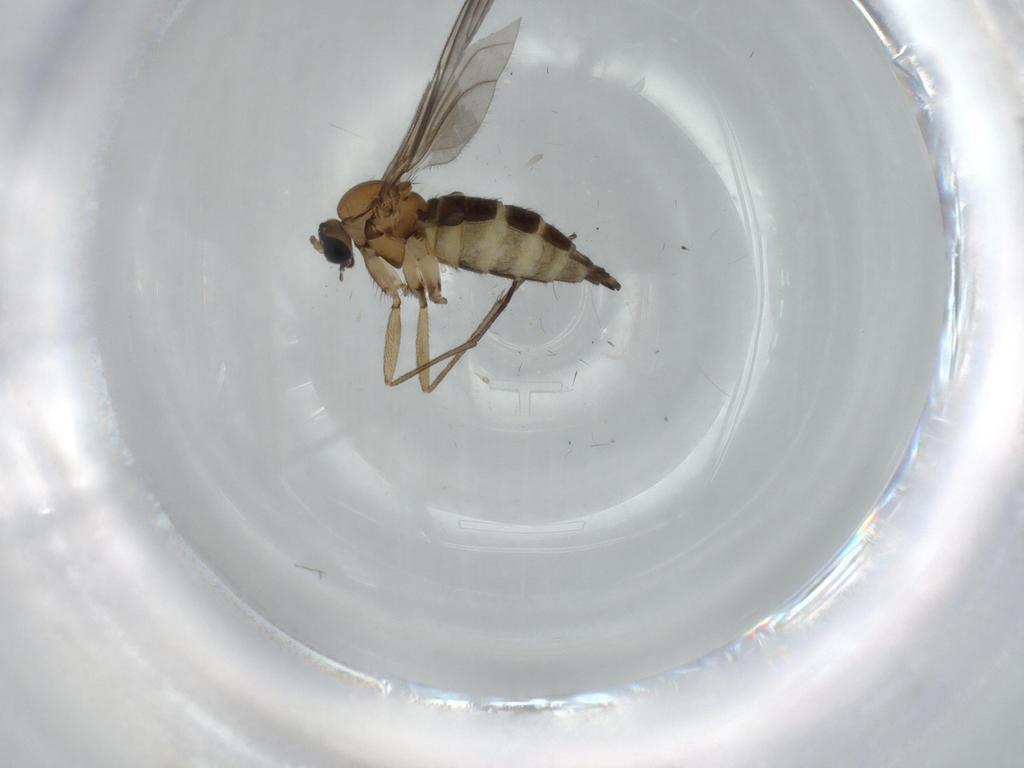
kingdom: Animalia
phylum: Arthropoda
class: Insecta
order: Diptera
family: Sciaridae
